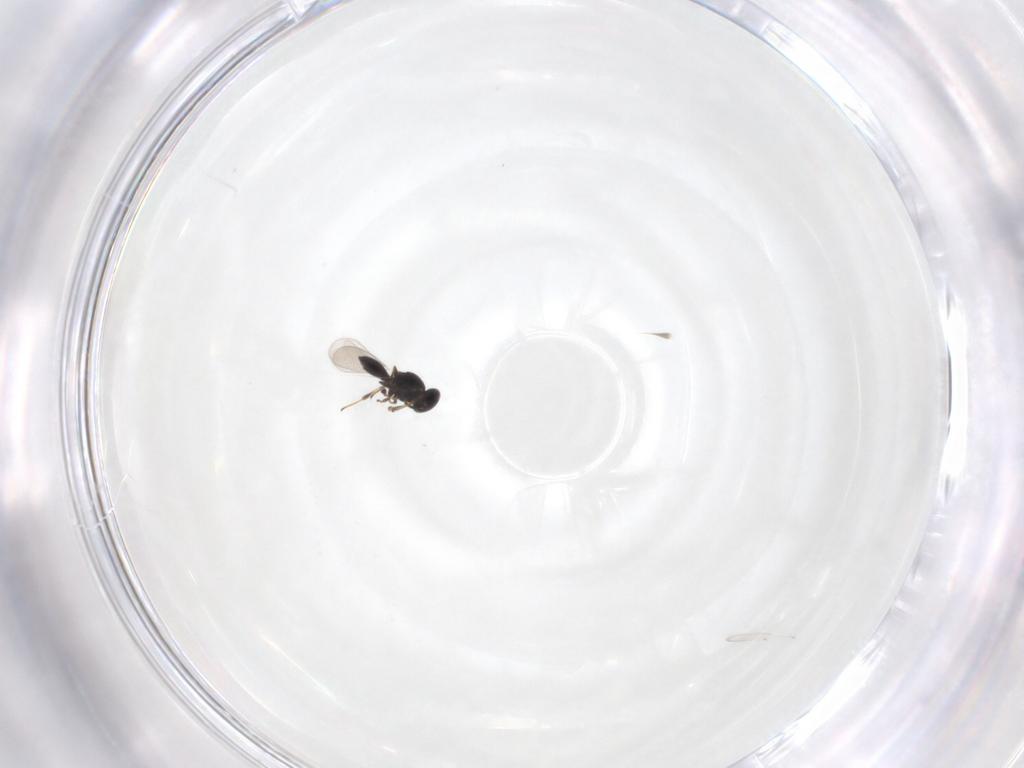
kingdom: Animalia
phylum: Arthropoda
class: Insecta
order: Hymenoptera
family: Platygastridae
